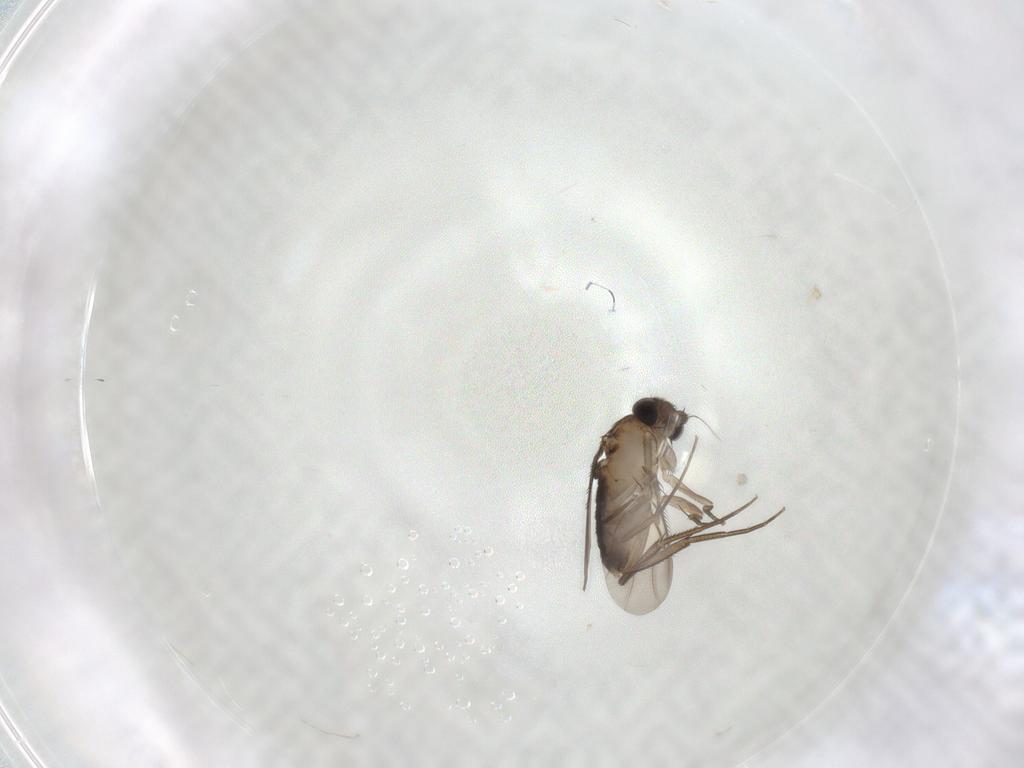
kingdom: Animalia
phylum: Arthropoda
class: Insecta
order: Diptera
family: Phoridae
